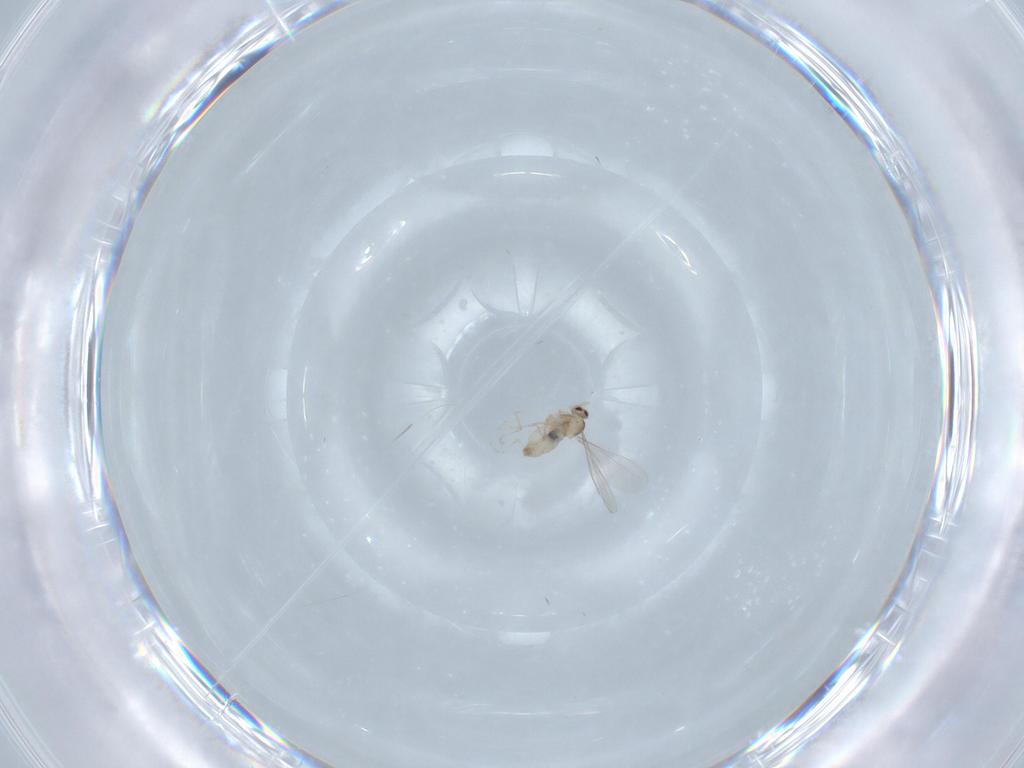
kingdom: Animalia
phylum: Arthropoda
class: Insecta
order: Diptera
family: Cecidomyiidae
